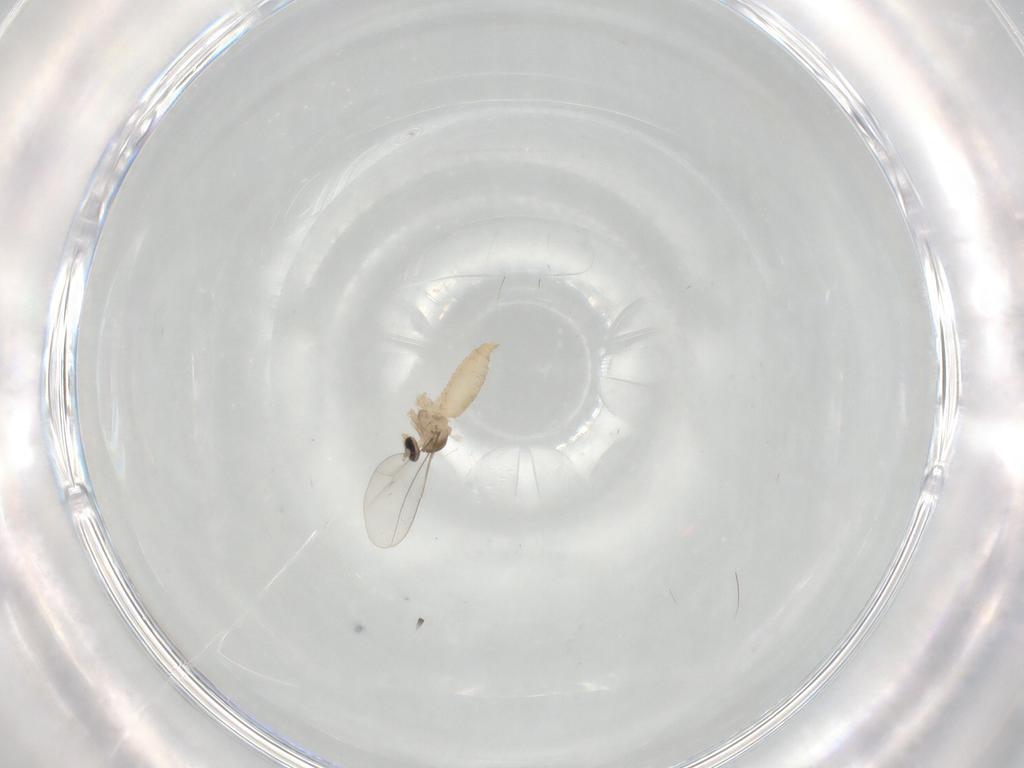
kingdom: Animalia
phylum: Arthropoda
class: Insecta
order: Diptera
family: Cecidomyiidae
